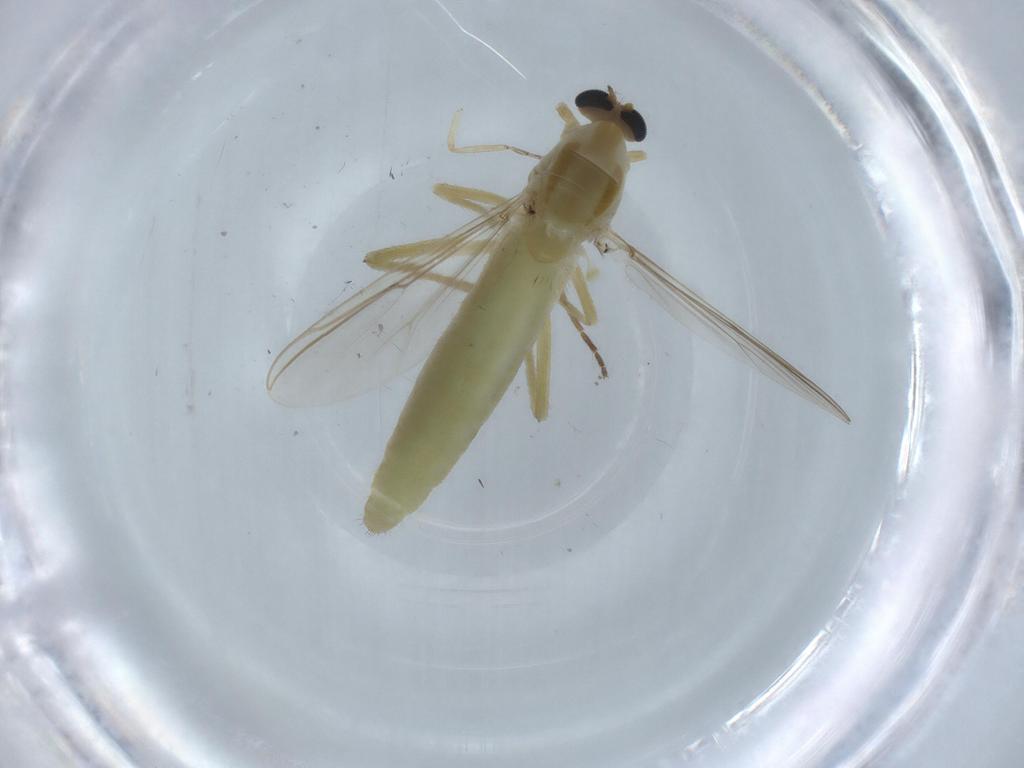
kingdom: Animalia
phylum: Arthropoda
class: Insecta
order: Diptera
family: Chironomidae
